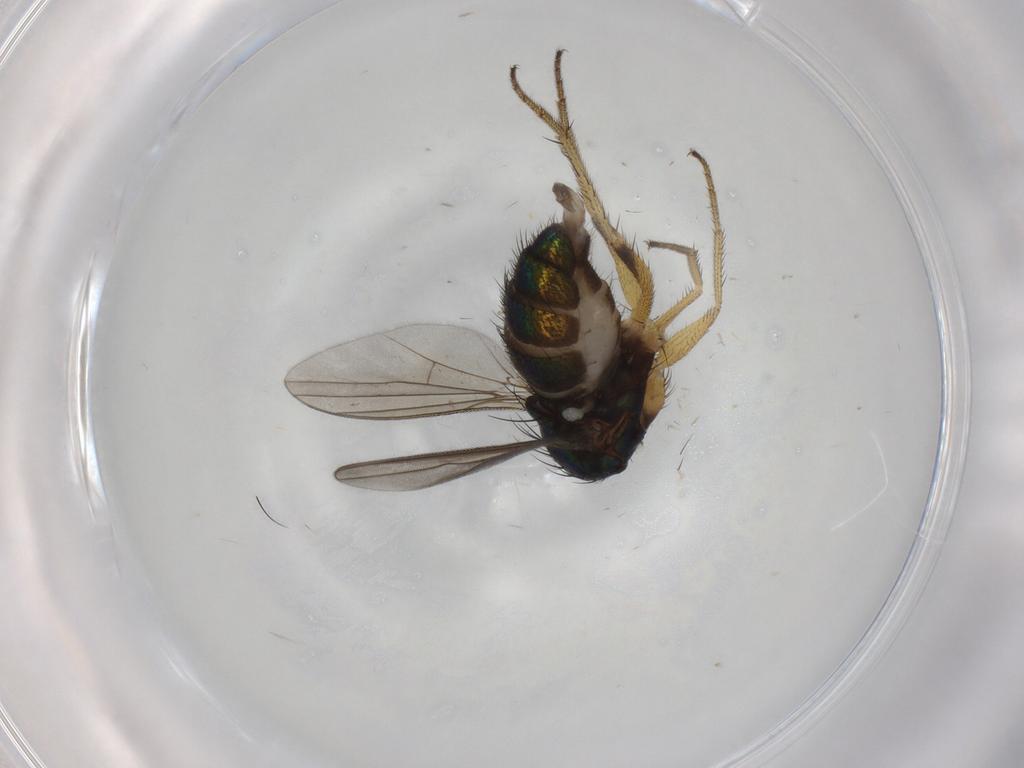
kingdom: Animalia
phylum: Arthropoda
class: Insecta
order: Diptera
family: Dolichopodidae
